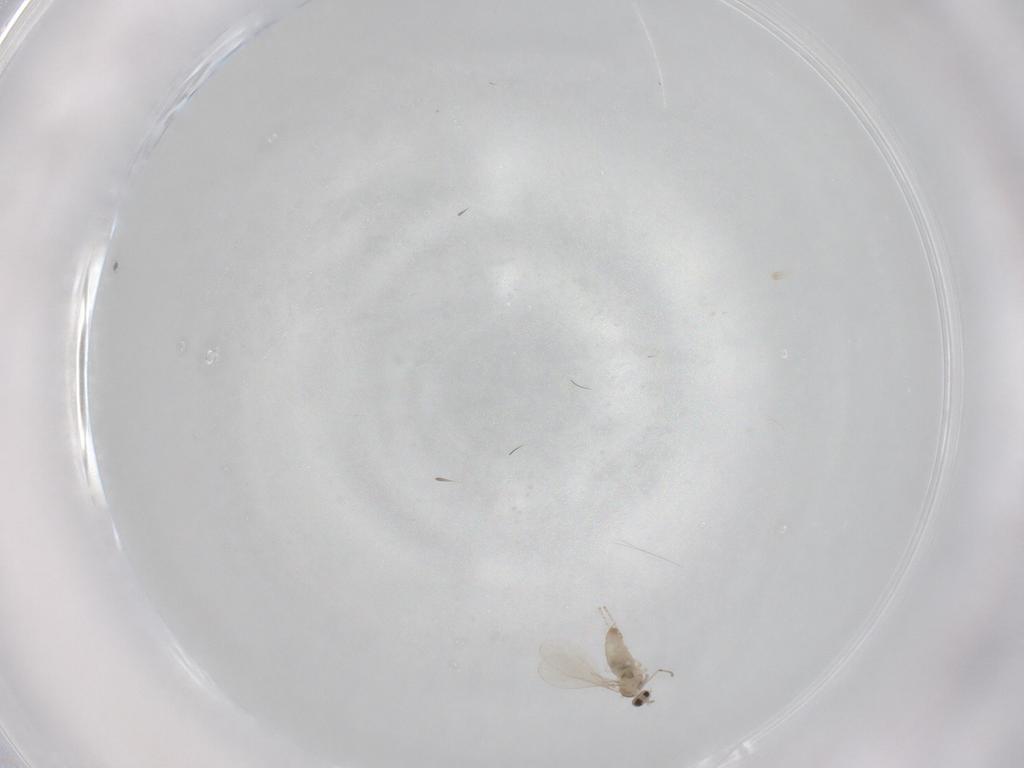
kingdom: Animalia
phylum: Arthropoda
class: Insecta
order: Diptera
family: Cecidomyiidae
